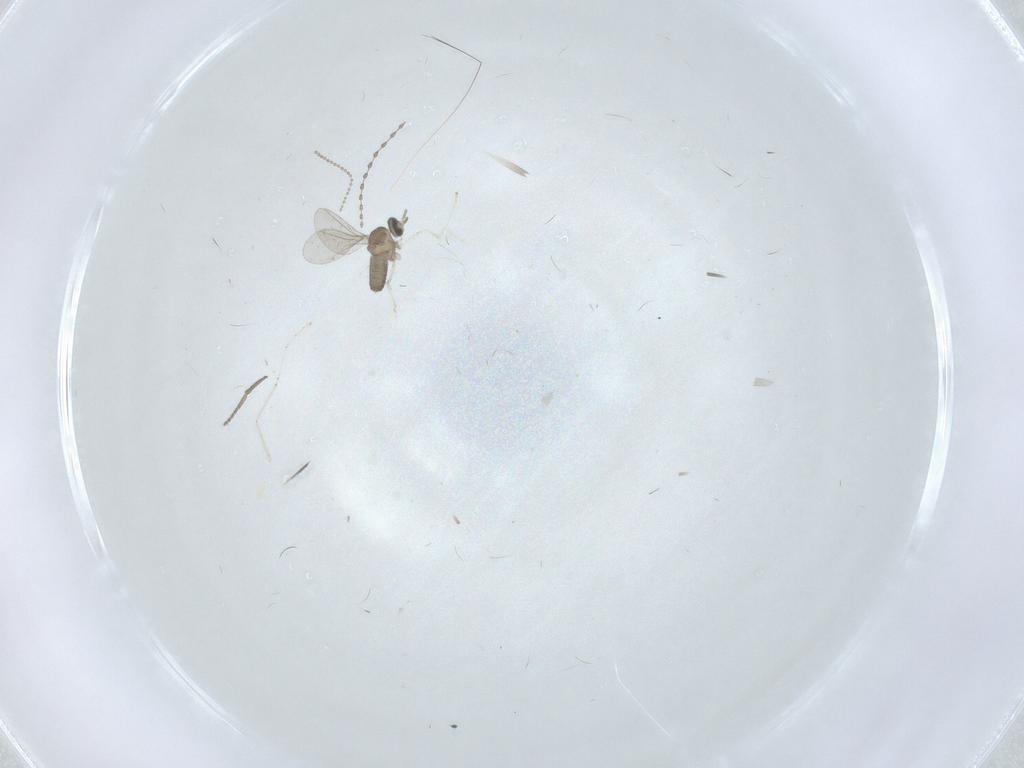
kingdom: Animalia
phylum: Arthropoda
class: Insecta
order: Diptera
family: Cecidomyiidae
